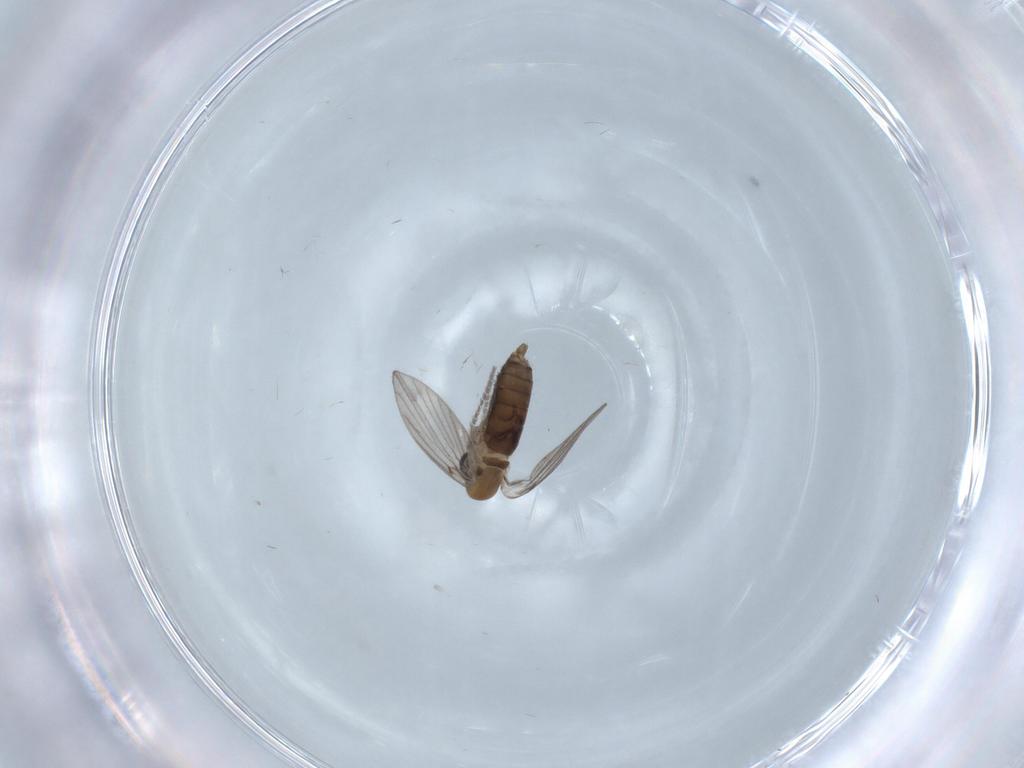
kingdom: Animalia
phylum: Arthropoda
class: Insecta
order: Diptera
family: Psychodidae
